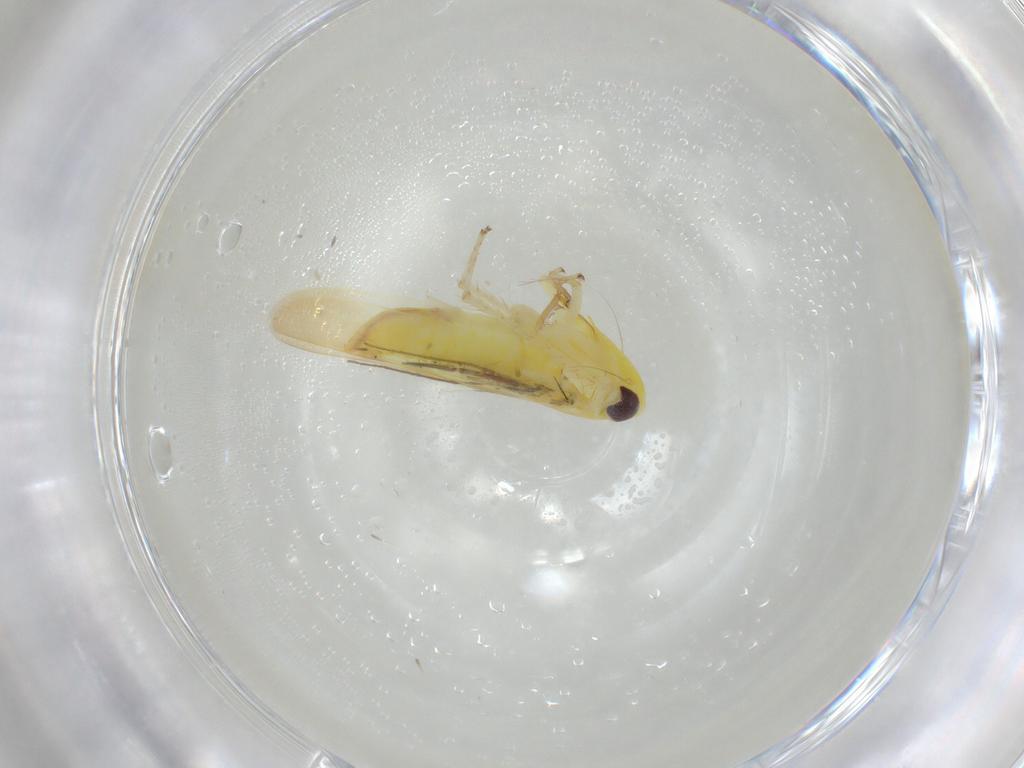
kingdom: Animalia
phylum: Arthropoda
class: Insecta
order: Hemiptera
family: Cicadellidae
